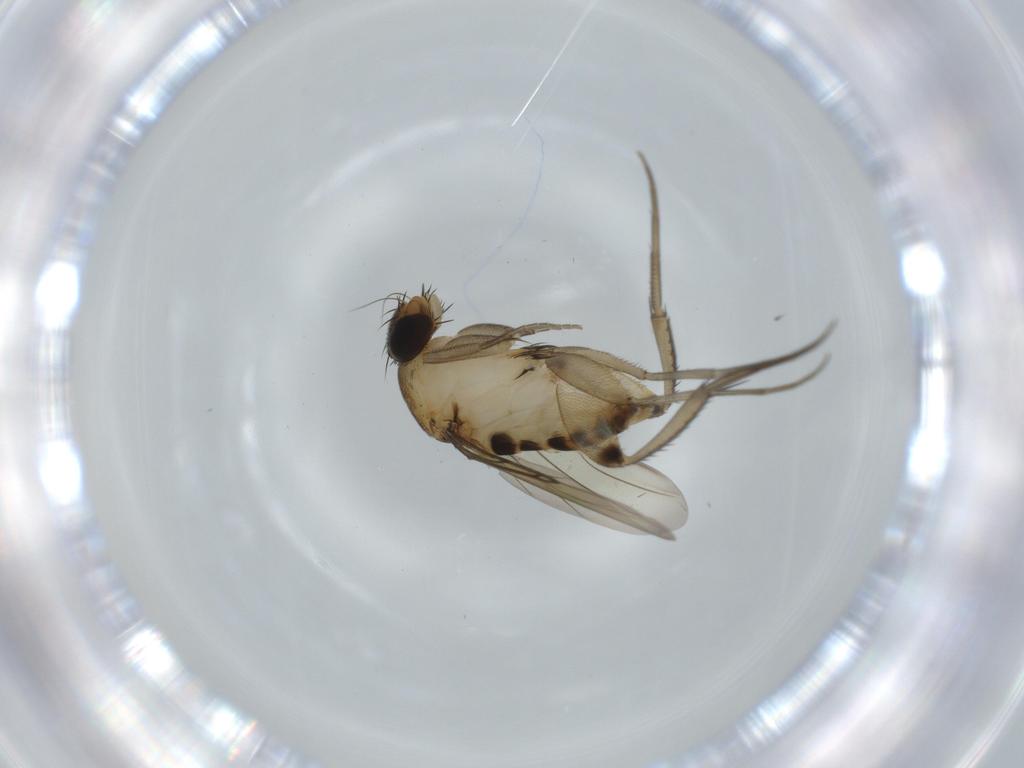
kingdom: Animalia
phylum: Arthropoda
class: Insecta
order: Diptera
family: Phoridae
